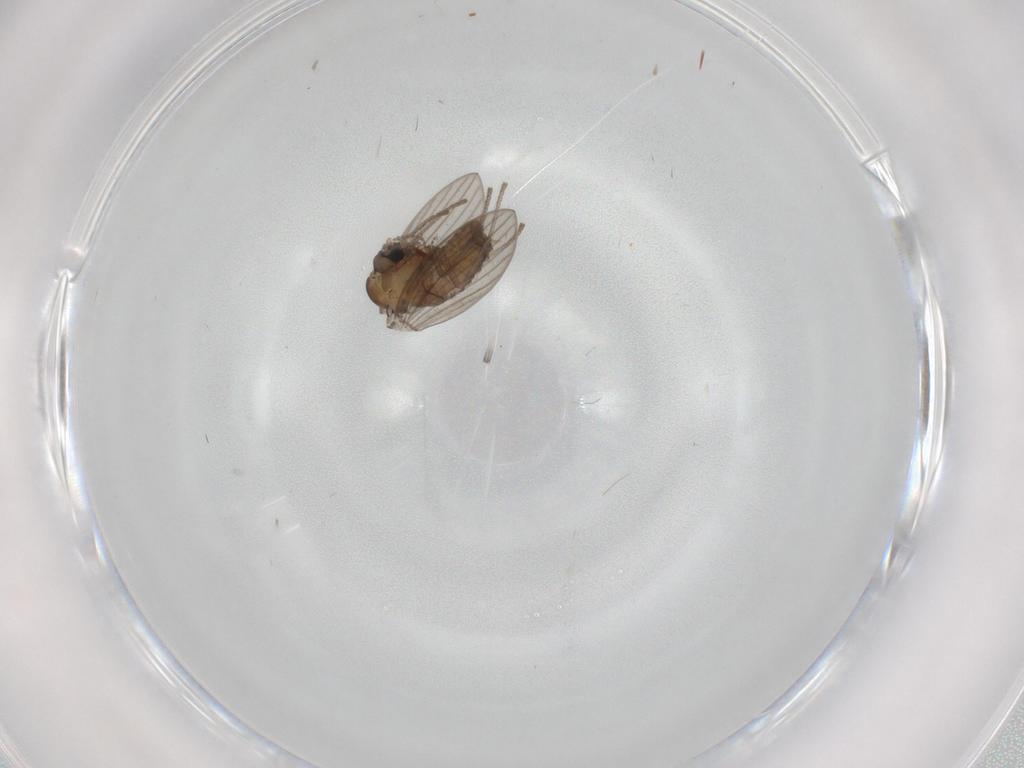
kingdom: Animalia
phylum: Arthropoda
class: Insecta
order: Diptera
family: Psychodidae
